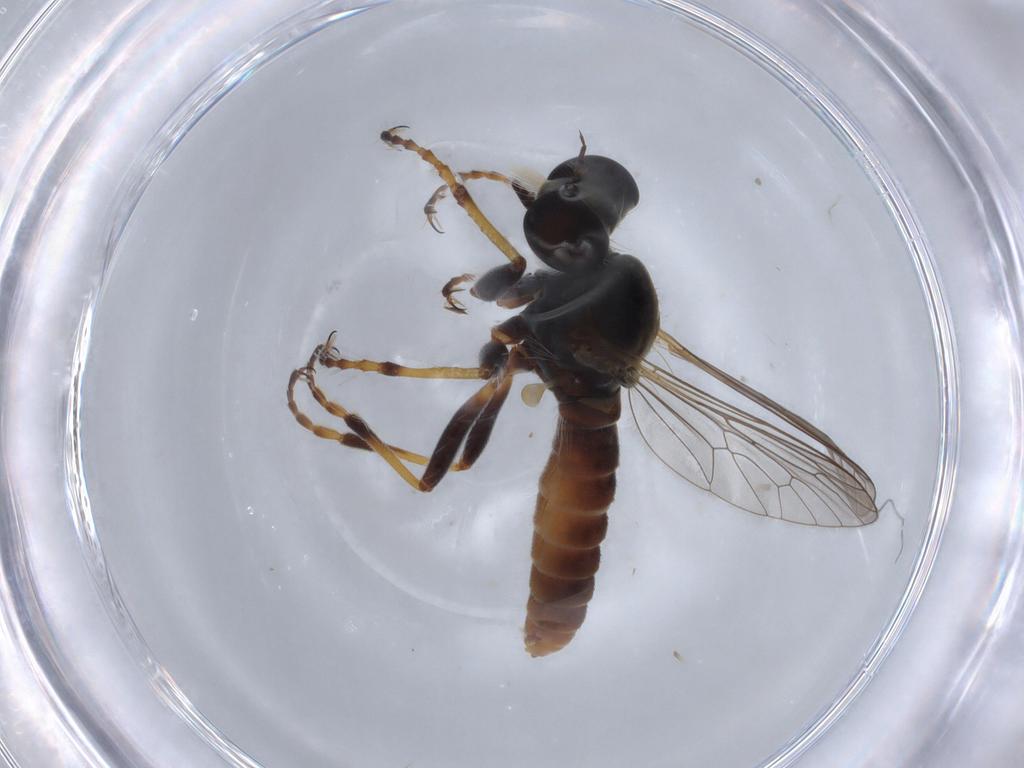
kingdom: Animalia
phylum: Arthropoda
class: Insecta
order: Diptera
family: Asilidae
